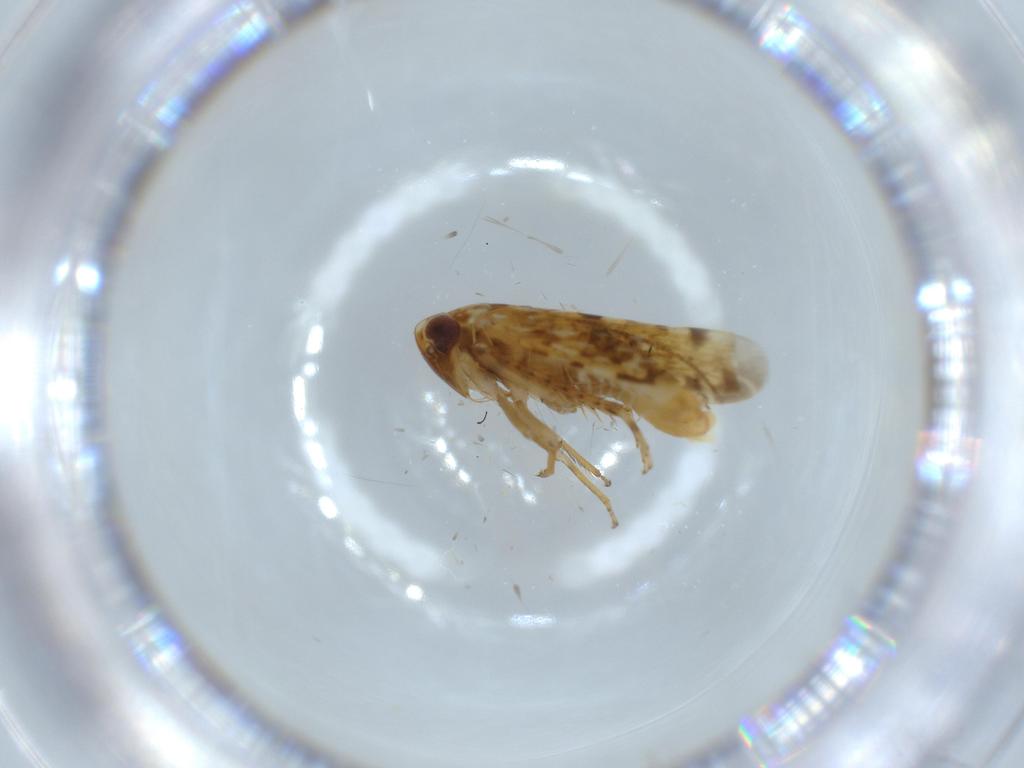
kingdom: Animalia
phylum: Arthropoda
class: Insecta
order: Hemiptera
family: Cicadellidae
